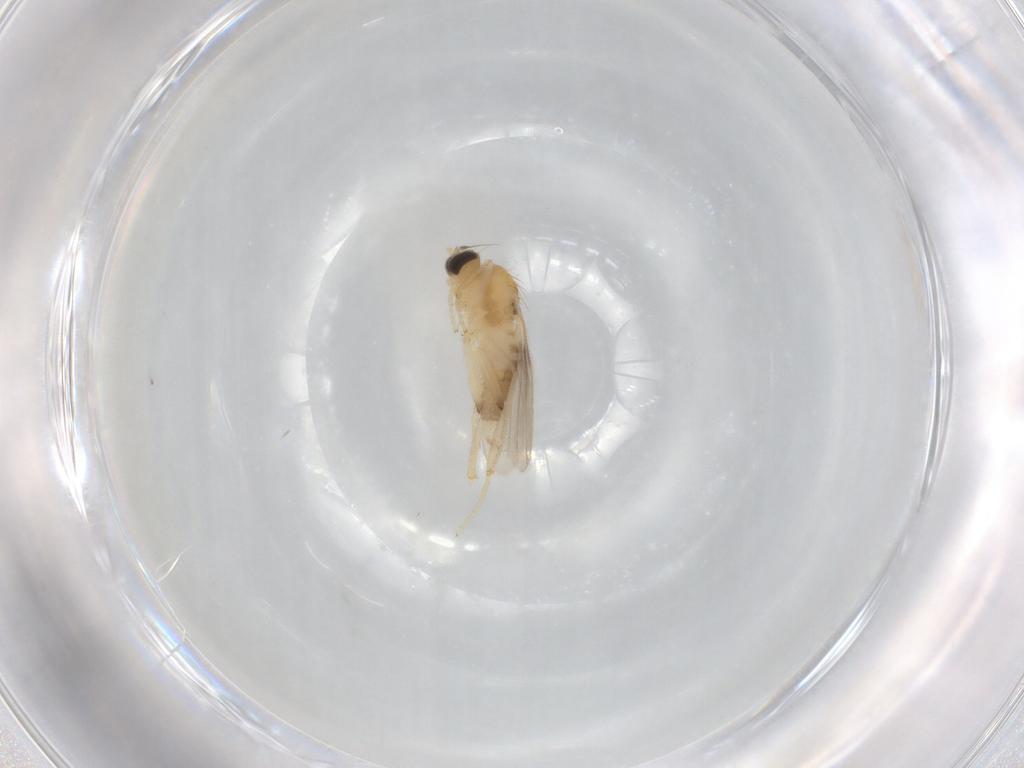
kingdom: Animalia
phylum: Arthropoda
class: Insecta
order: Diptera
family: Hybotidae
